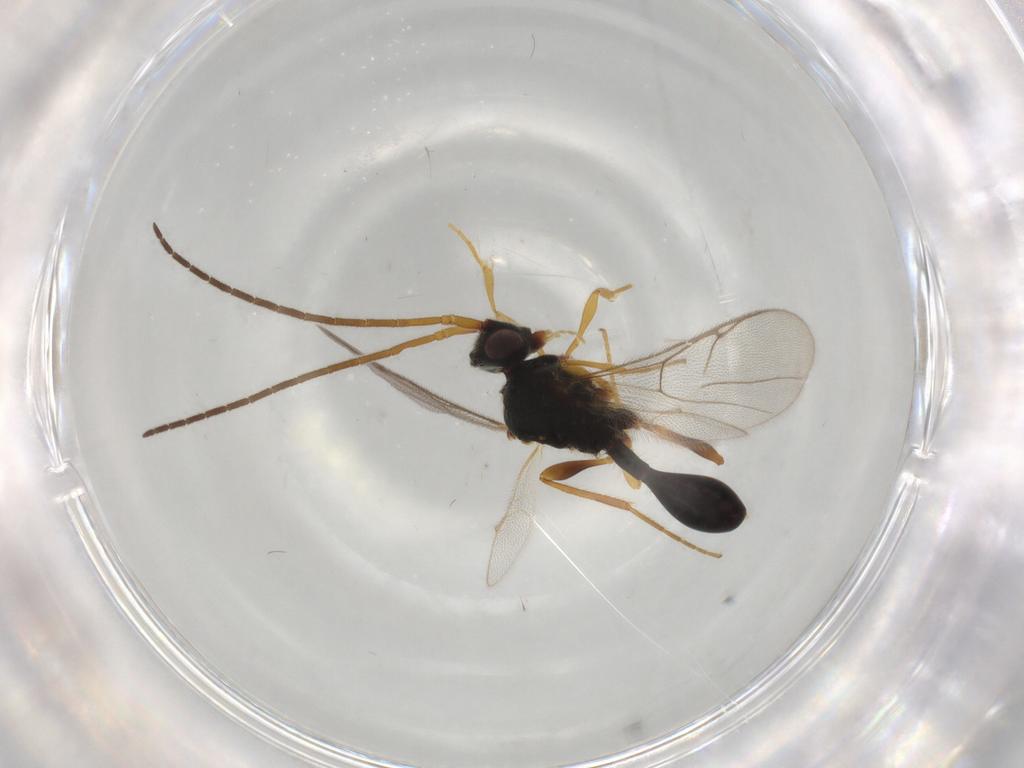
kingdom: Animalia
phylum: Arthropoda
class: Insecta
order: Hymenoptera
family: Diapriidae
